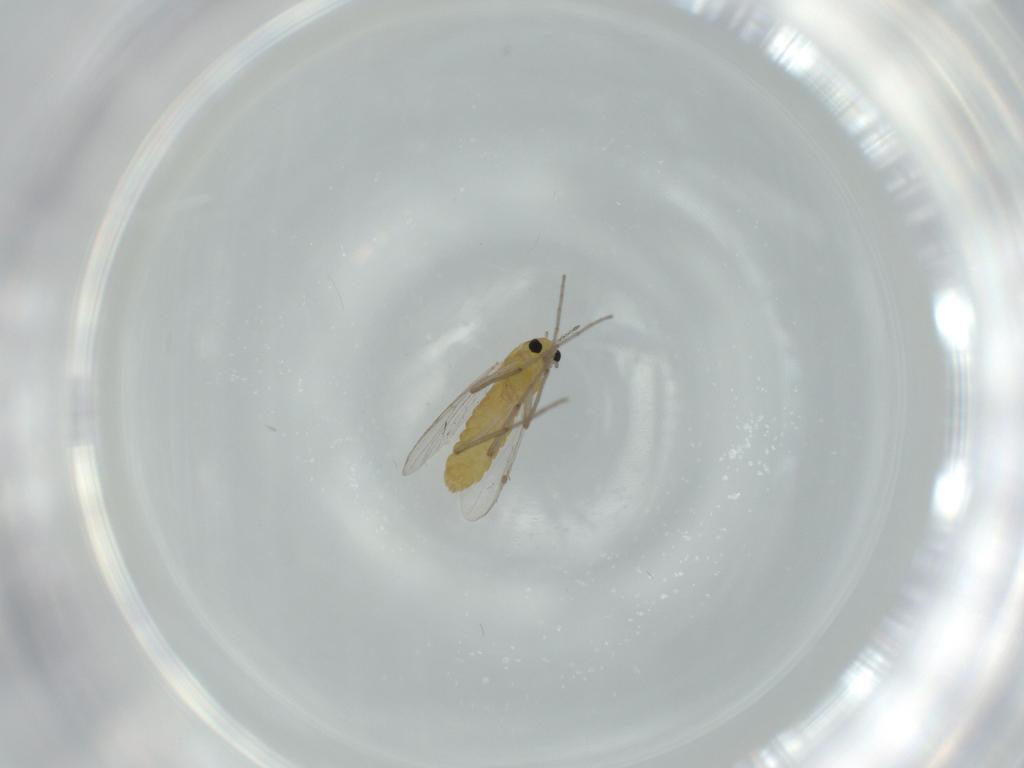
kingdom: Animalia
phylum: Arthropoda
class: Insecta
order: Diptera
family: Chironomidae
